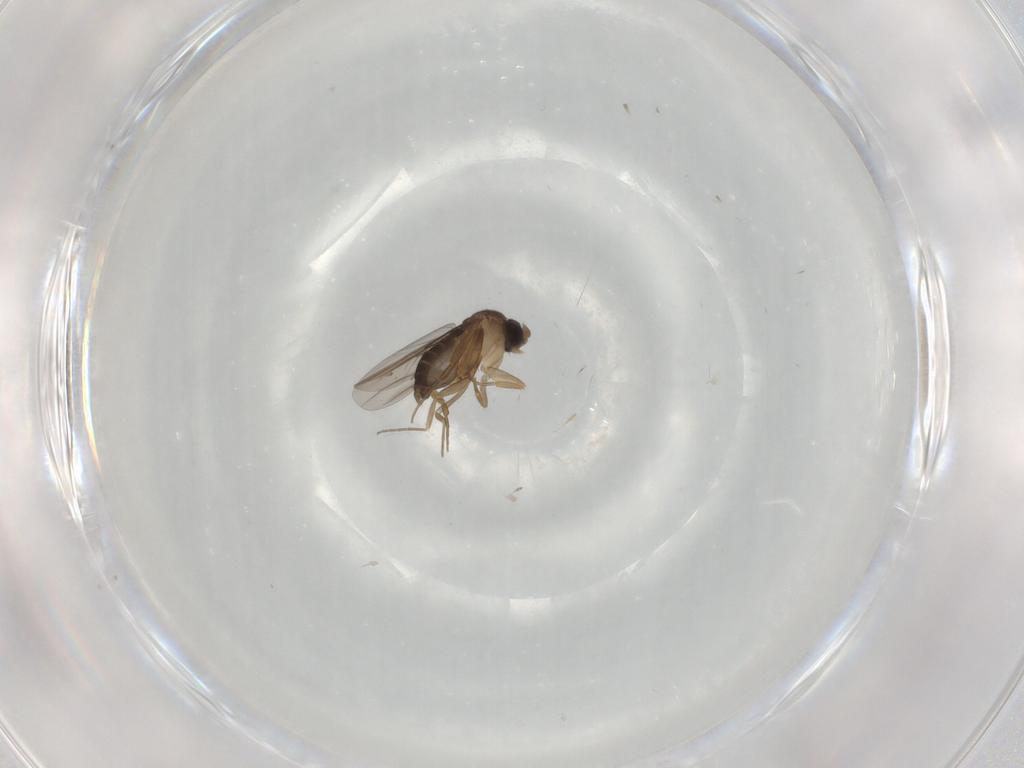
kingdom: Animalia
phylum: Arthropoda
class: Insecta
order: Diptera
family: Phoridae
